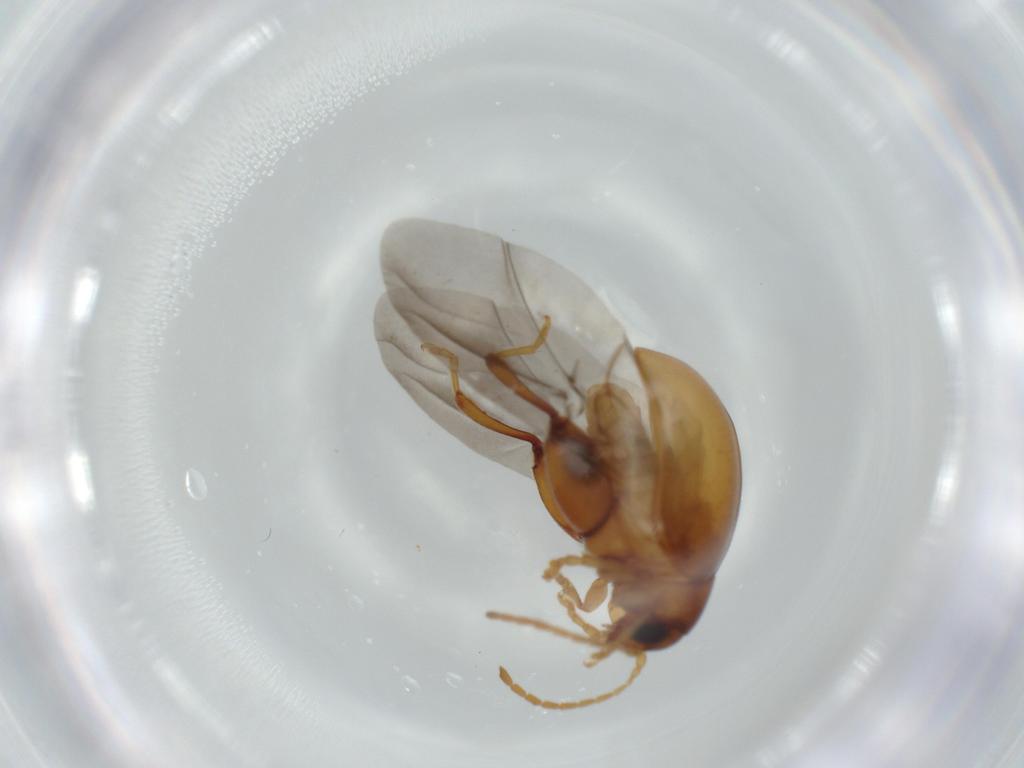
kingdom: Animalia
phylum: Arthropoda
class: Insecta
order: Coleoptera
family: Chrysomelidae
